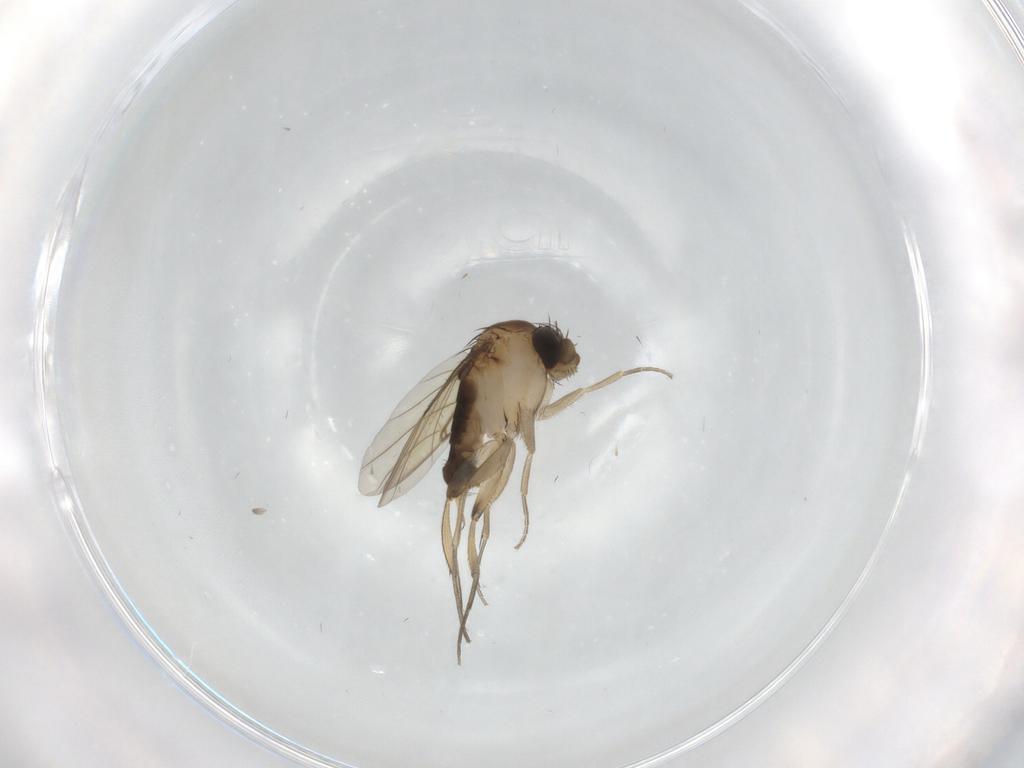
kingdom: Animalia
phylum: Arthropoda
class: Insecta
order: Diptera
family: Phoridae
